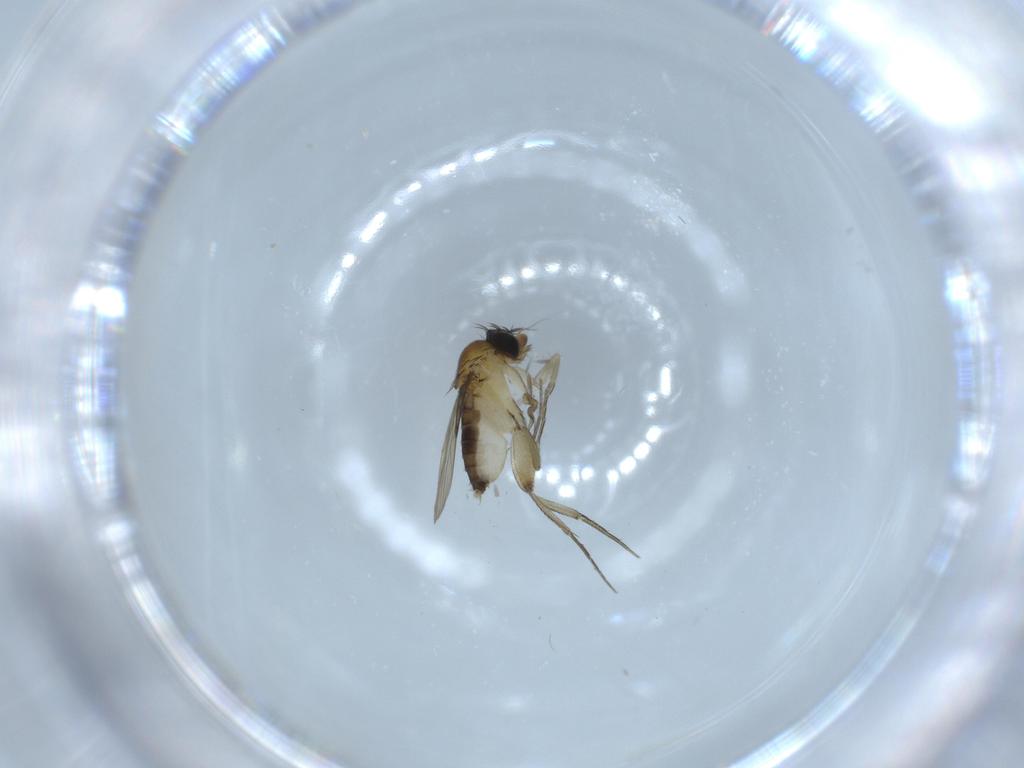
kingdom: Animalia
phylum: Arthropoda
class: Insecta
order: Diptera
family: Phoridae
